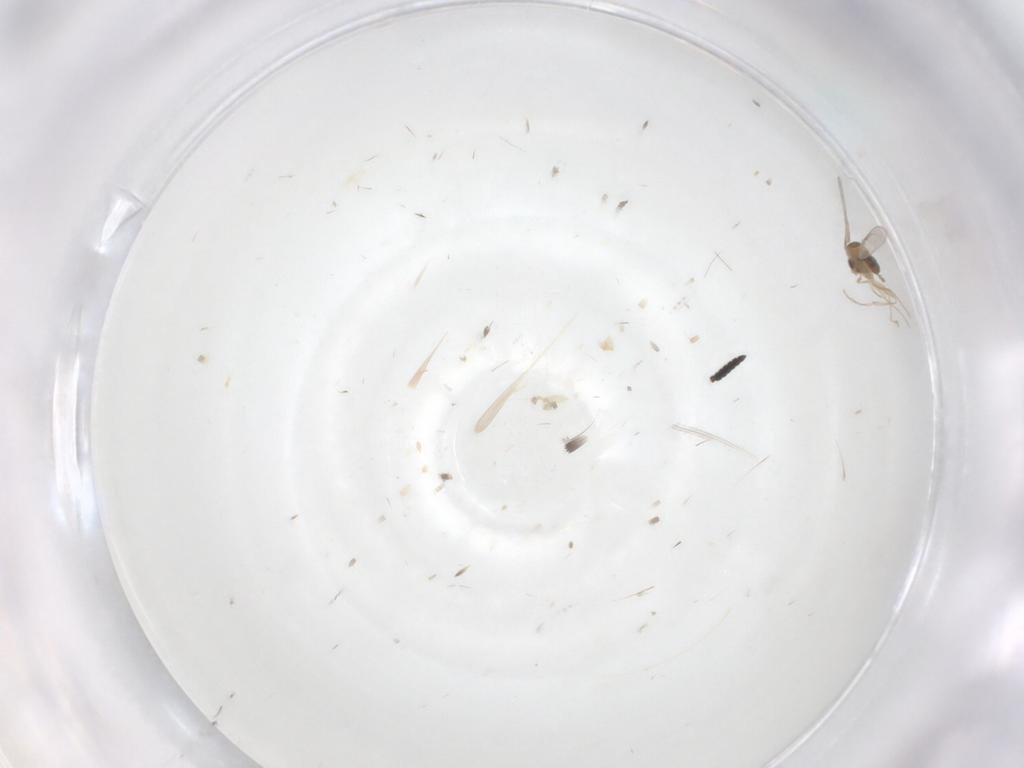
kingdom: Animalia
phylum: Arthropoda
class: Insecta
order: Diptera
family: Cecidomyiidae
